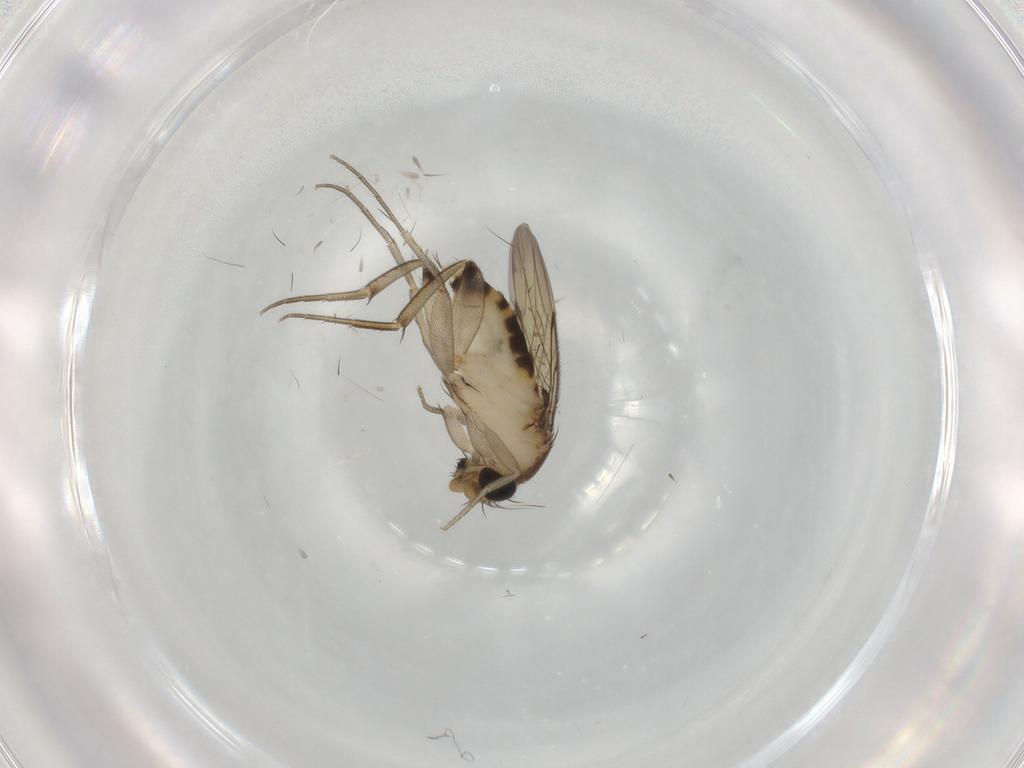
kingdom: Animalia
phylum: Arthropoda
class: Insecta
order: Diptera
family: Phoridae
